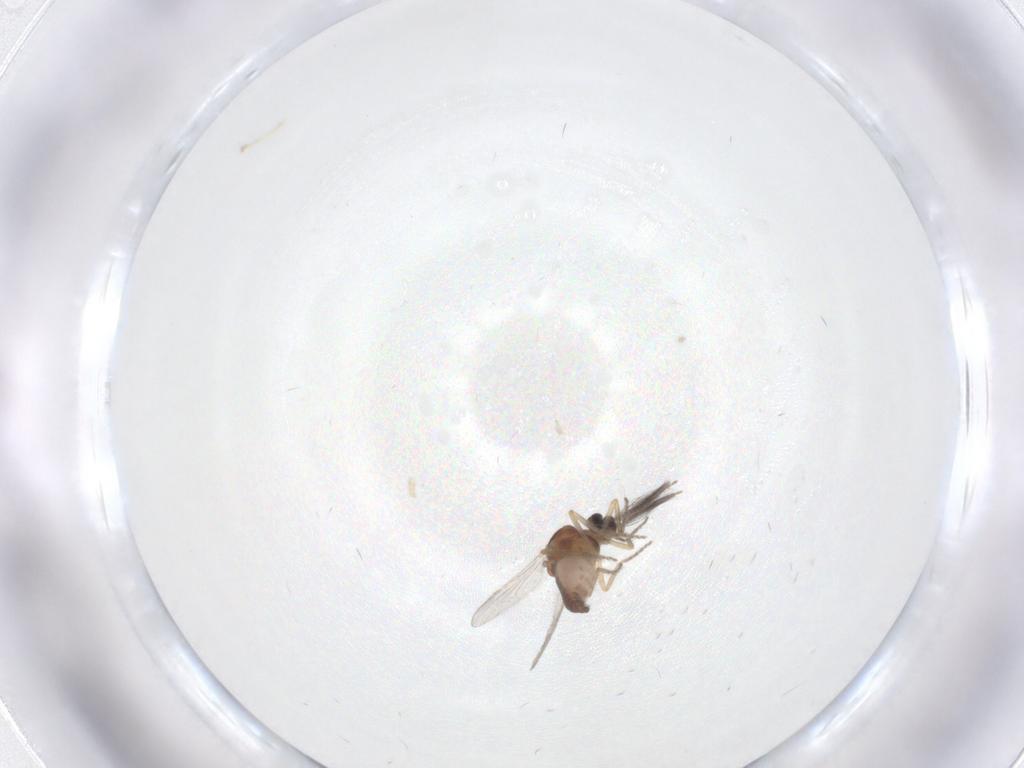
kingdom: Animalia
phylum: Arthropoda
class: Insecta
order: Diptera
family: Ceratopogonidae
